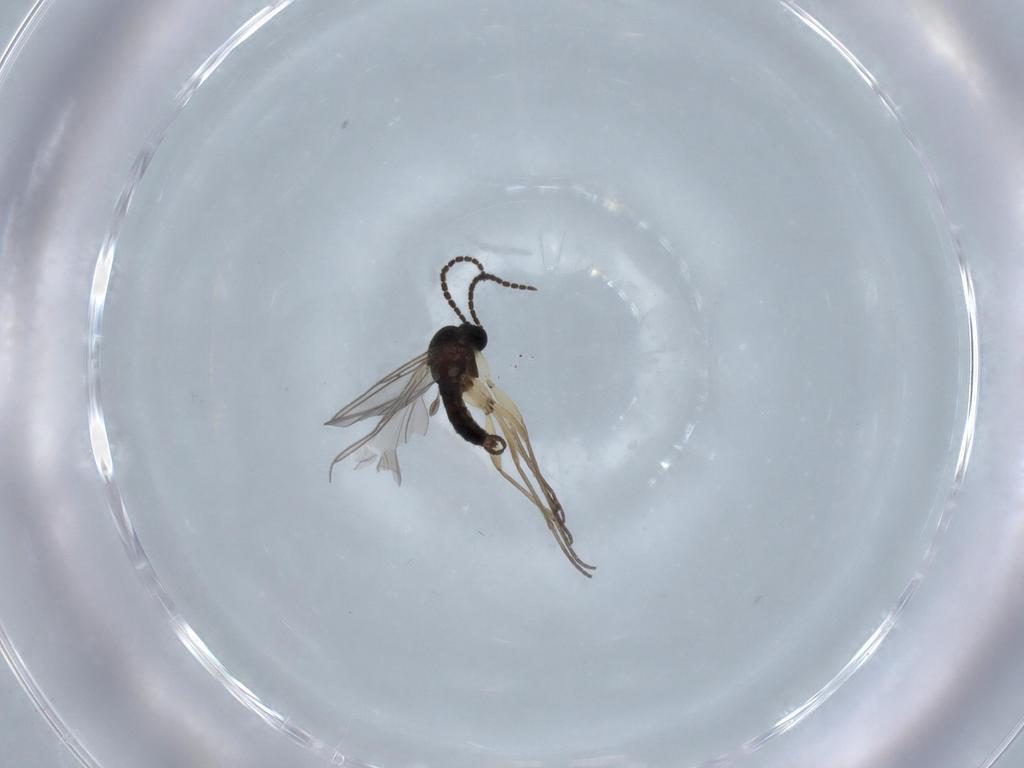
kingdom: Animalia
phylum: Arthropoda
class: Insecta
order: Diptera
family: Sciaridae
